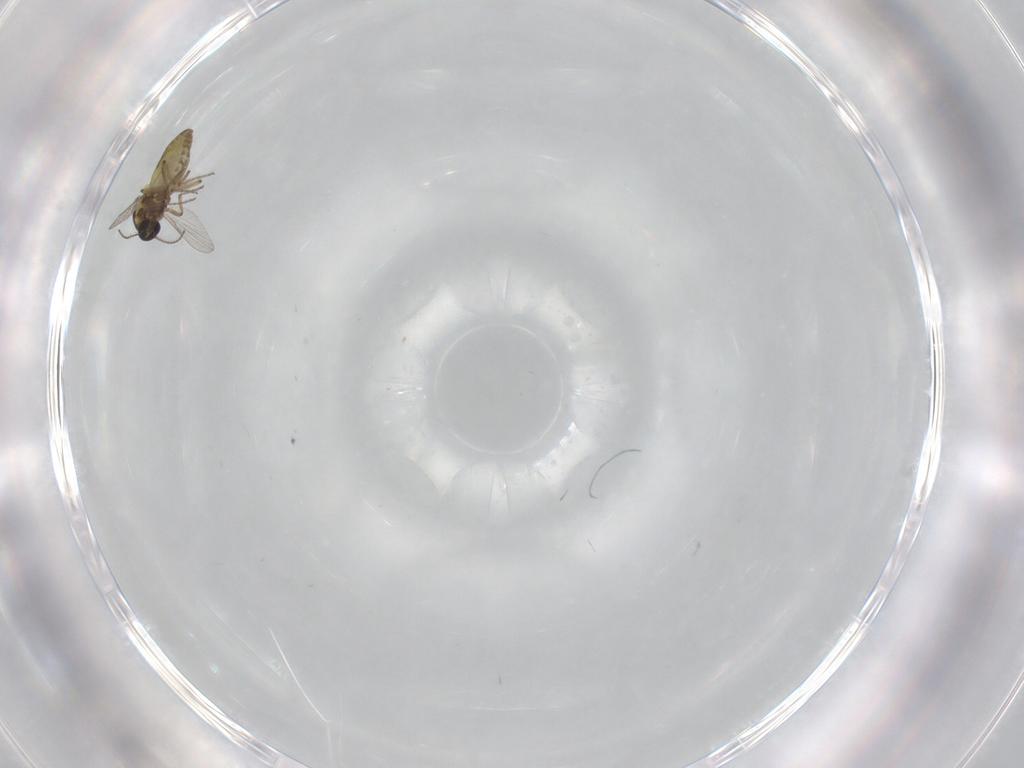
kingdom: Animalia
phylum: Arthropoda
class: Insecta
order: Diptera
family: Ceratopogonidae
